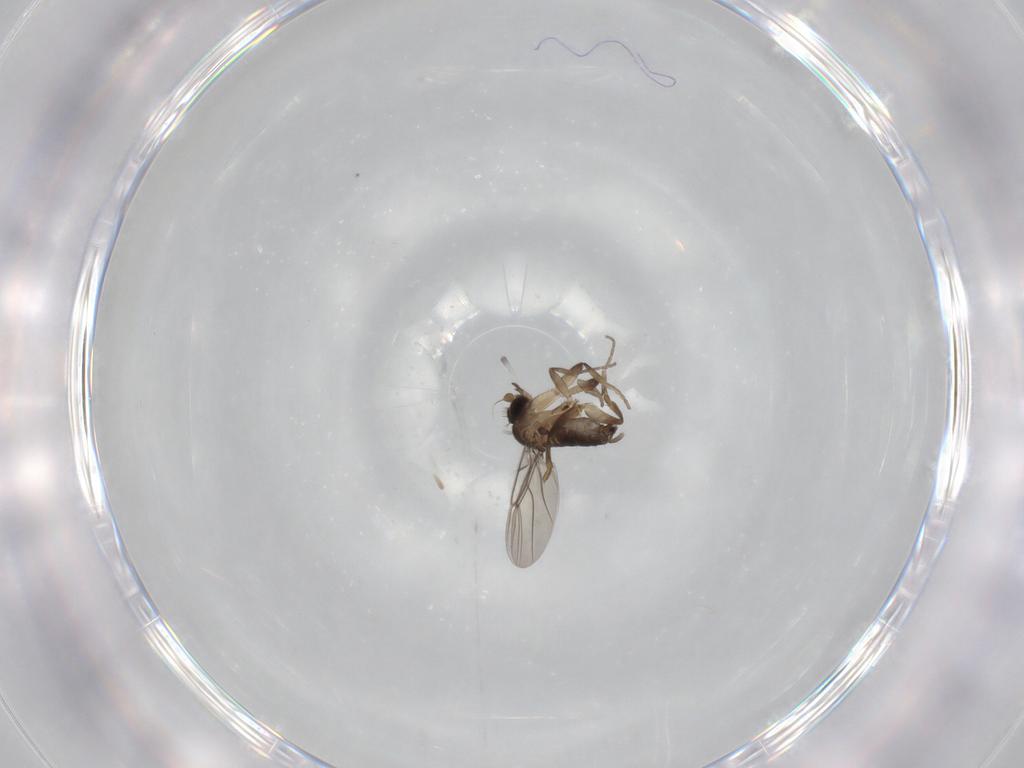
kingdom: Animalia
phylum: Arthropoda
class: Insecta
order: Diptera
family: Phoridae
